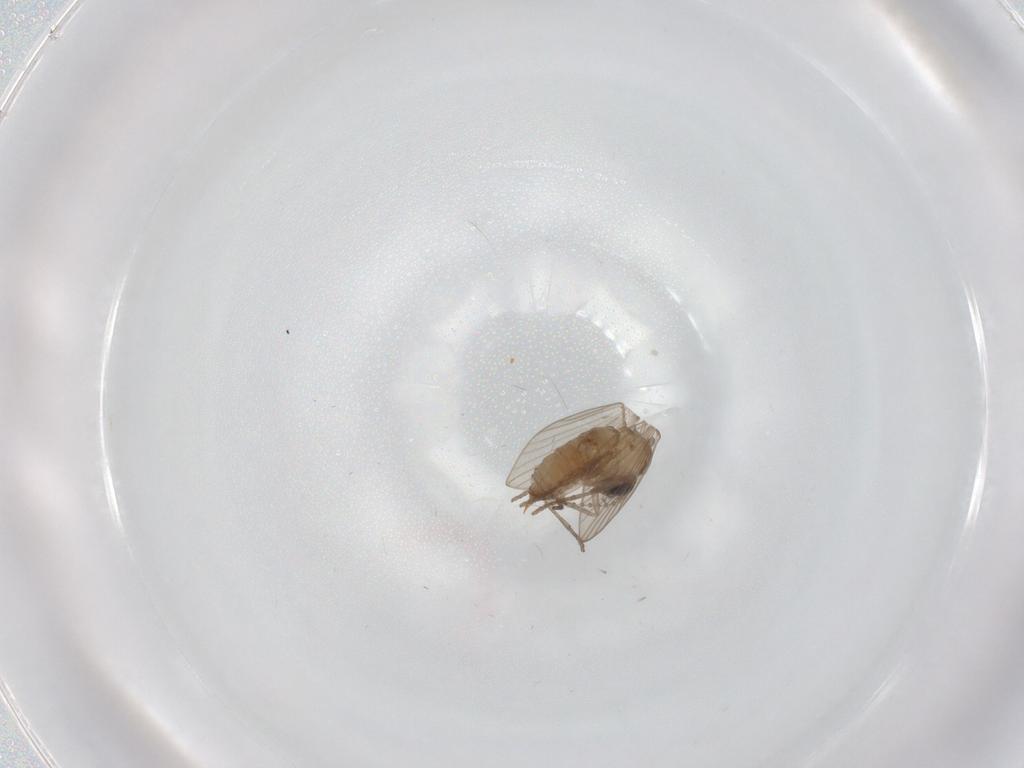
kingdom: Animalia
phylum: Arthropoda
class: Insecta
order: Diptera
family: Psychodidae
